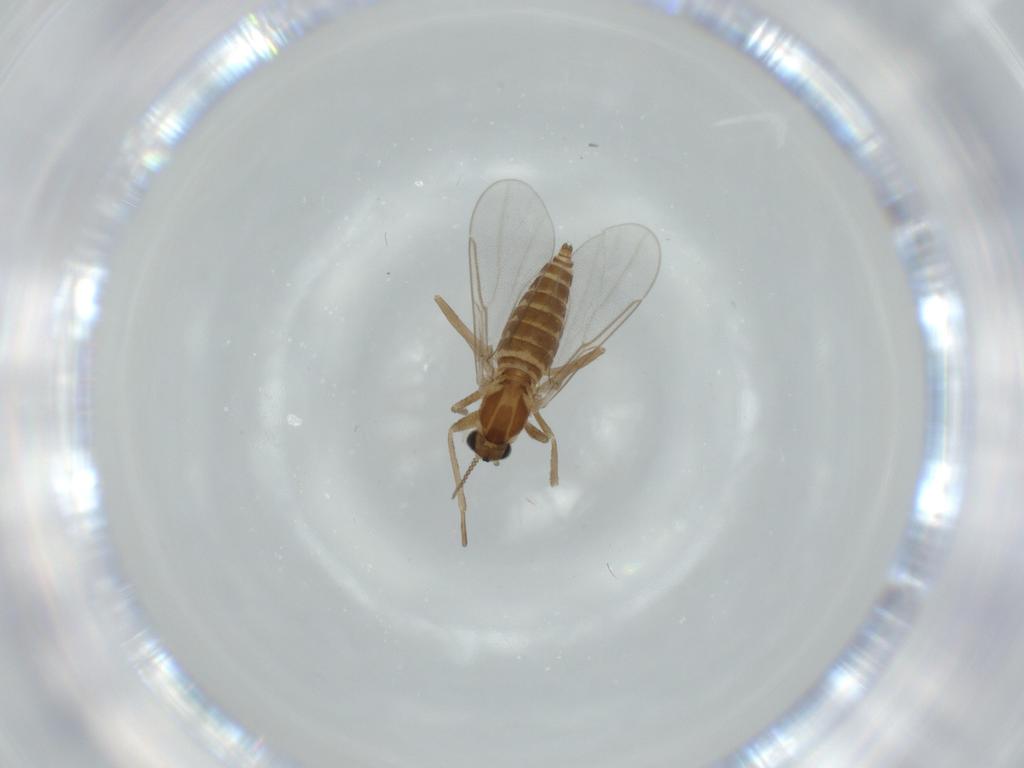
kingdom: Animalia
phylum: Arthropoda
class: Insecta
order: Diptera
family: Cecidomyiidae
